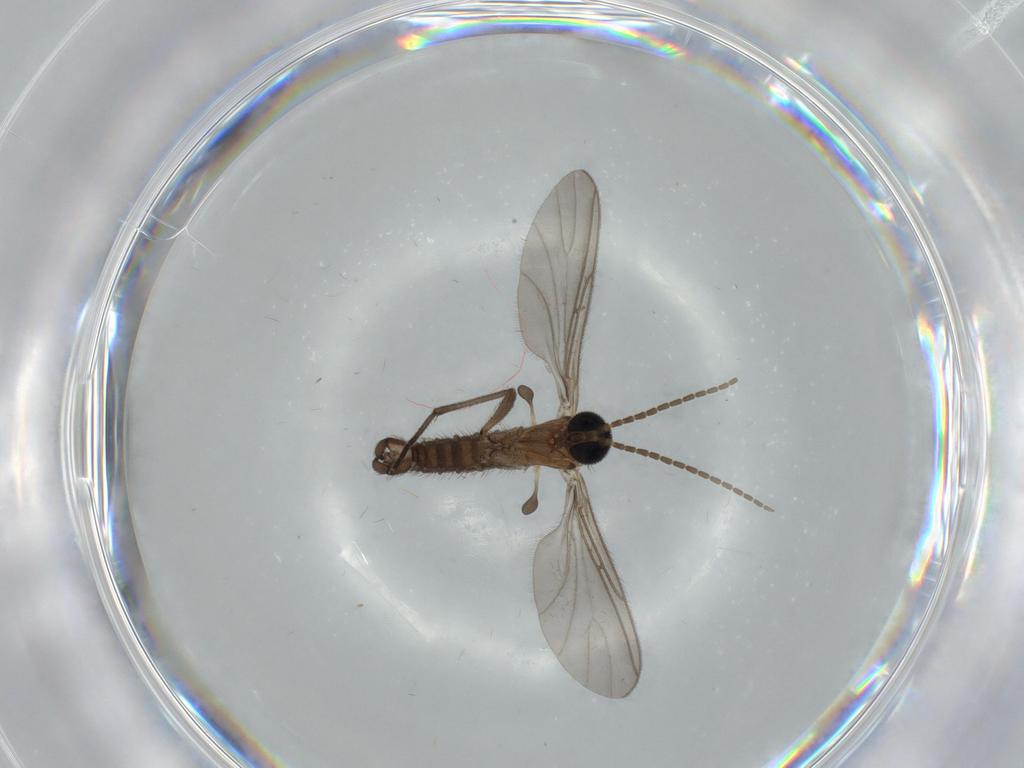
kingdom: Animalia
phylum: Arthropoda
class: Insecta
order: Diptera
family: Sciaridae
